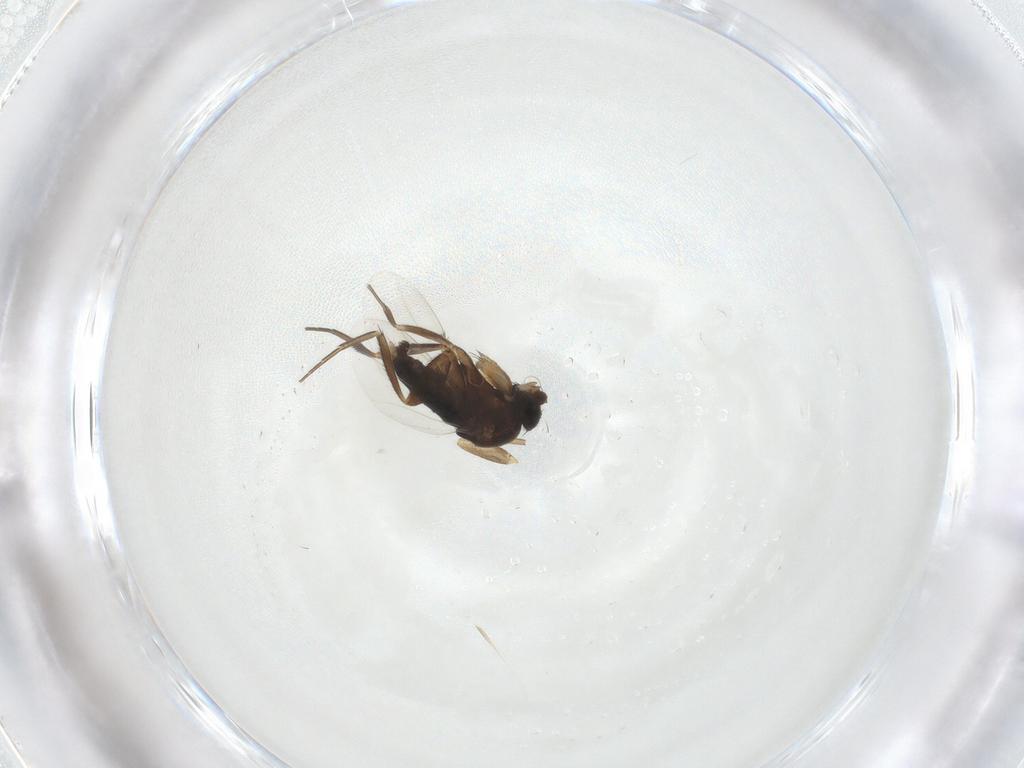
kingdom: Animalia
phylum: Arthropoda
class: Insecta
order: Diptera
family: Phoridae
